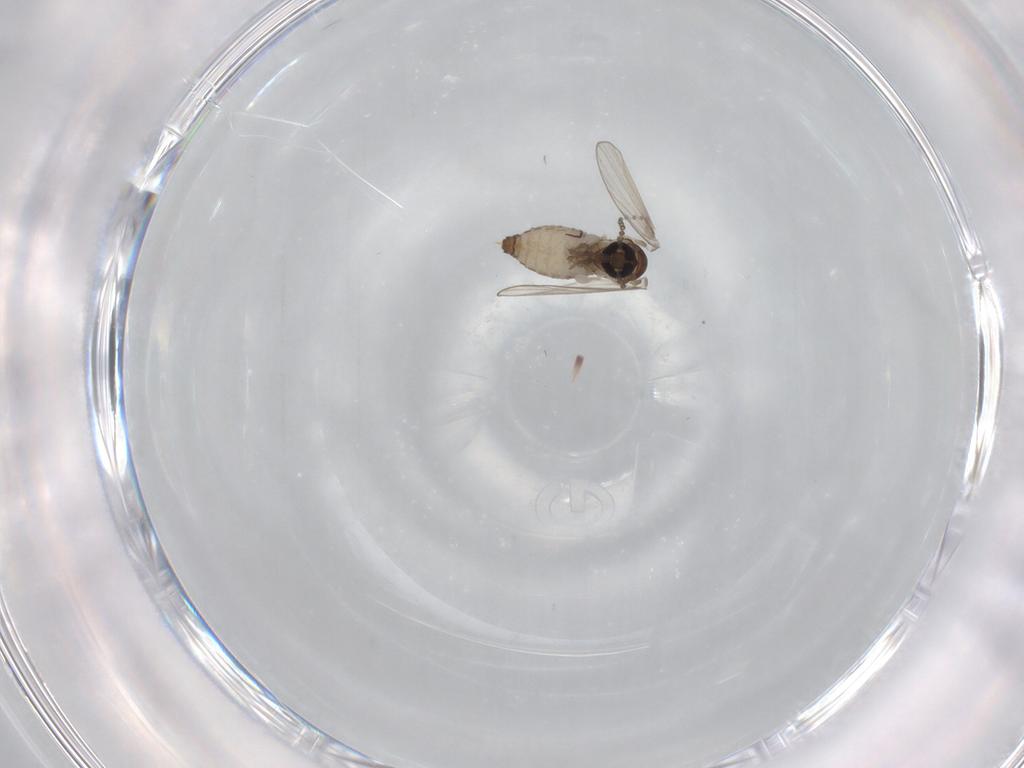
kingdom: Animalia
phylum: Arthropoda
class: Insecta
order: Diptera
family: Psychodidae
